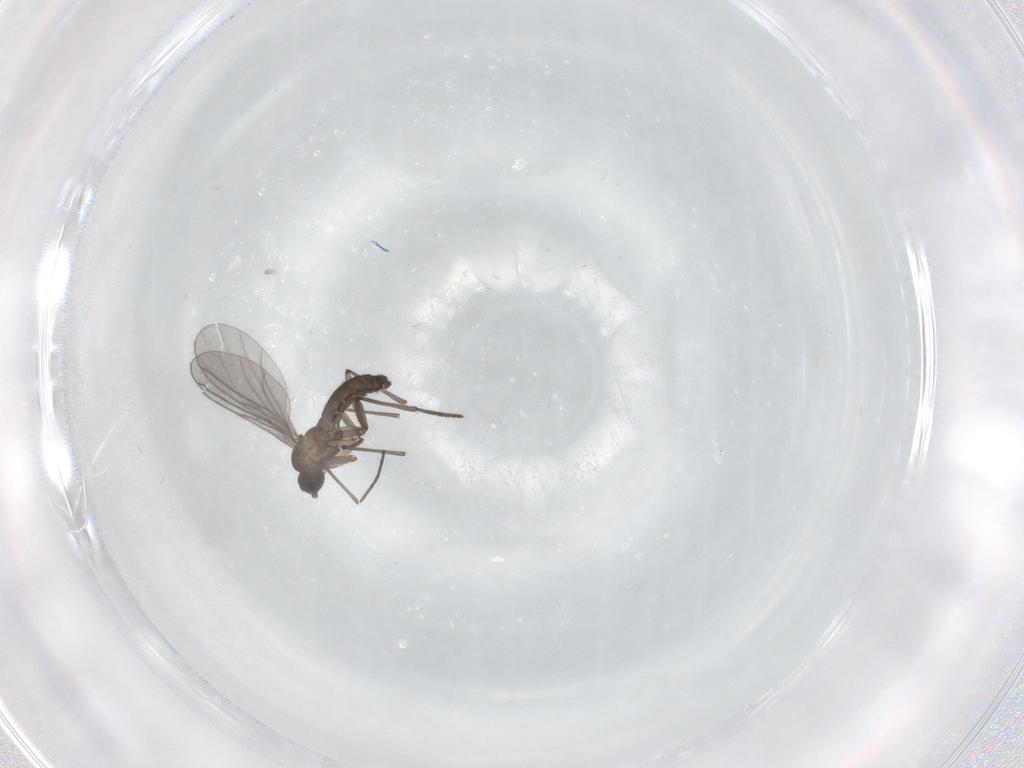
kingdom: Animalia
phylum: Arthropoda
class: Insecta
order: Diptera
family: Chironomidae
